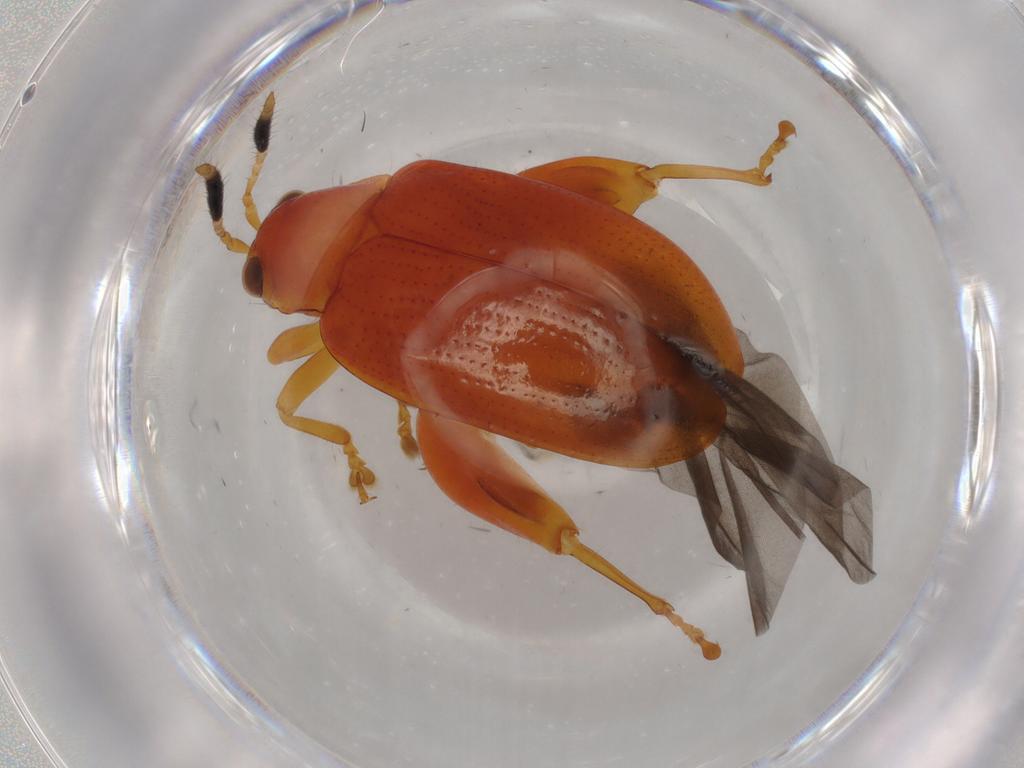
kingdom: Animalia
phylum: Arthropoda
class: Insecta
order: Coleoptera
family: Chrysomelidae
